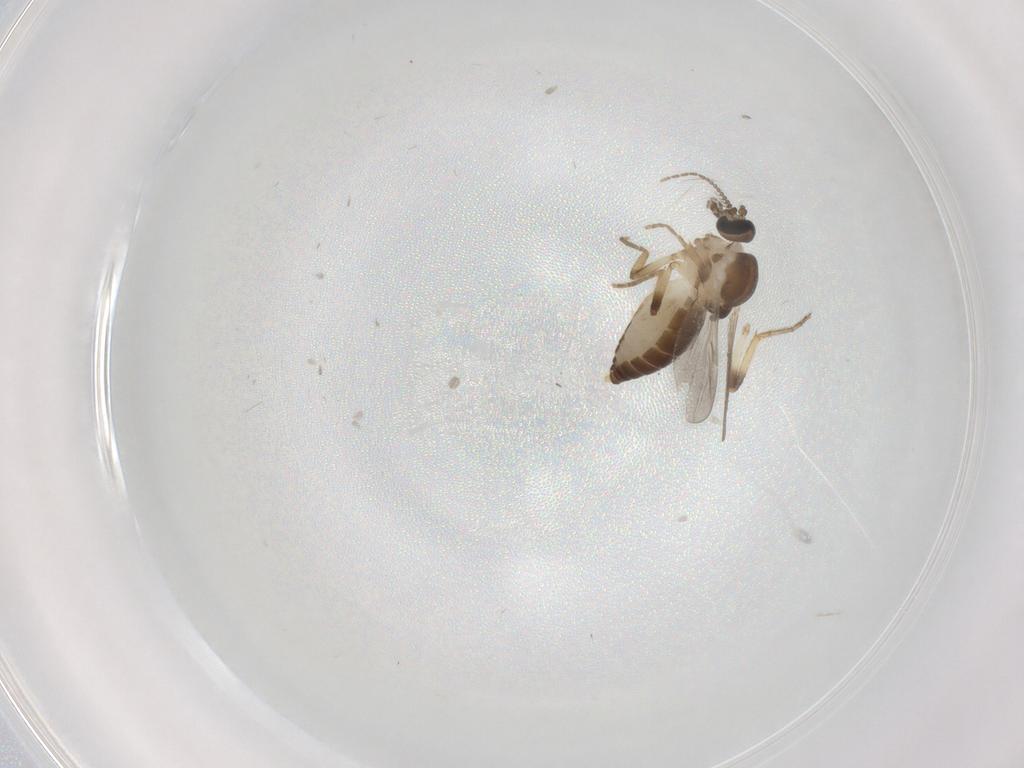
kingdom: Animalia
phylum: Arthropoda
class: Insecta
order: Diptera
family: Ceratopogonidae
